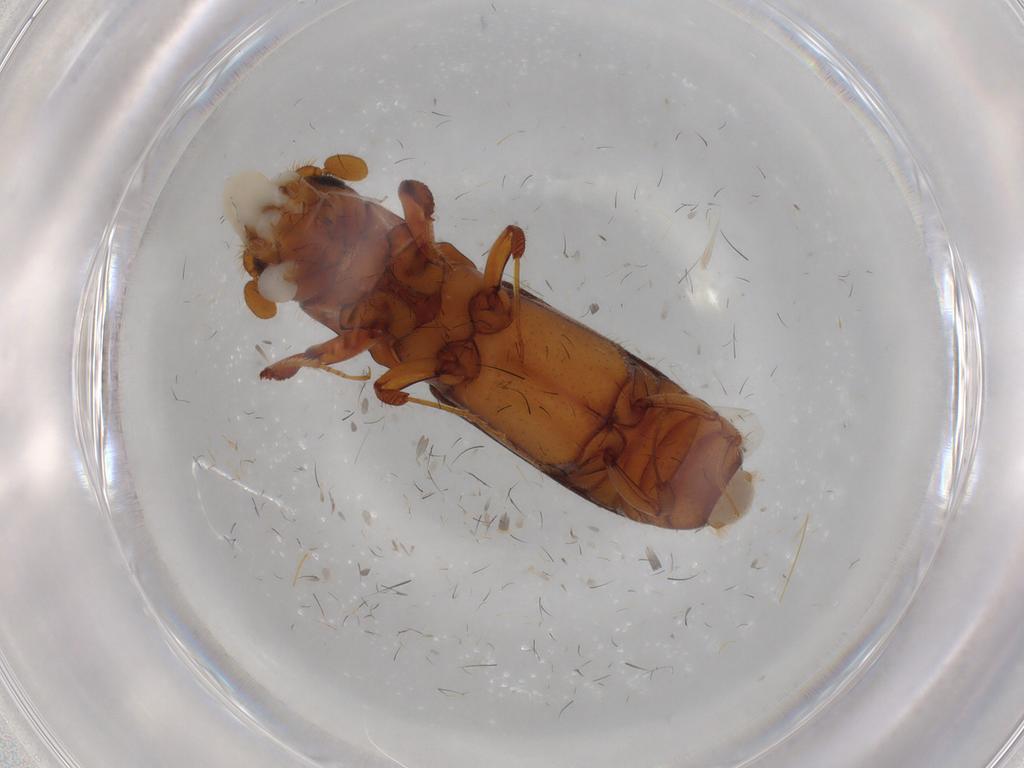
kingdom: Animalia
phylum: Arthropoda
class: Insecta
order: Coleoptera
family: Curculionidae
